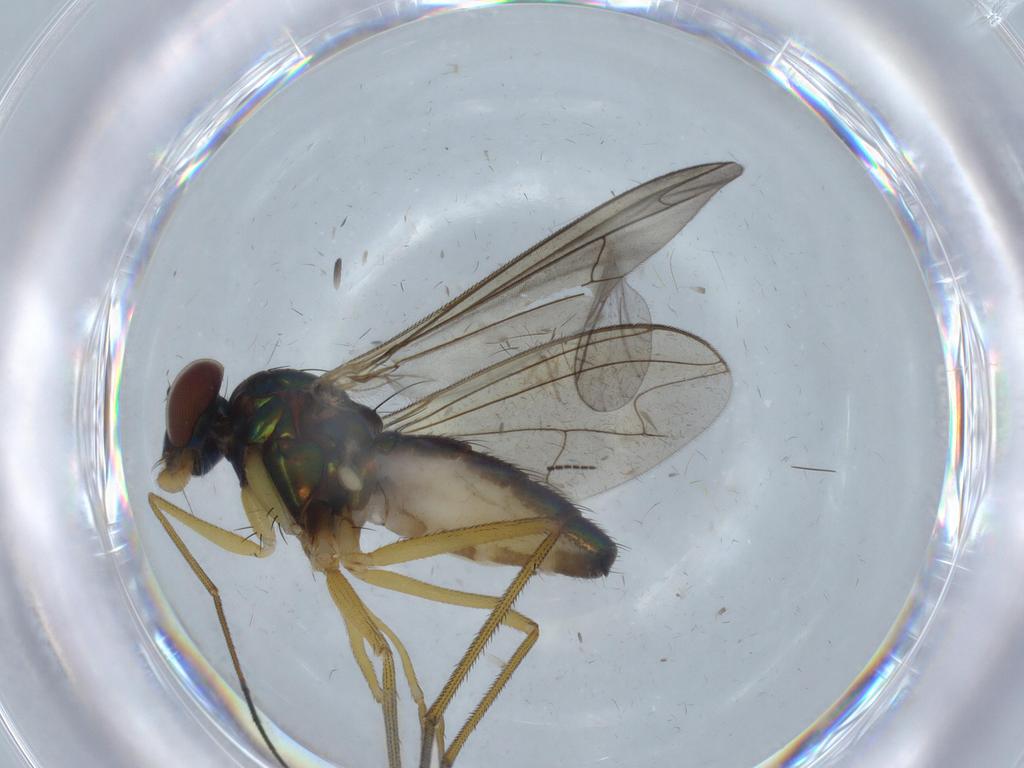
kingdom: Animalia
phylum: Arthropoda
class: Insecta
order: Diptera
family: Dolichopodidae
